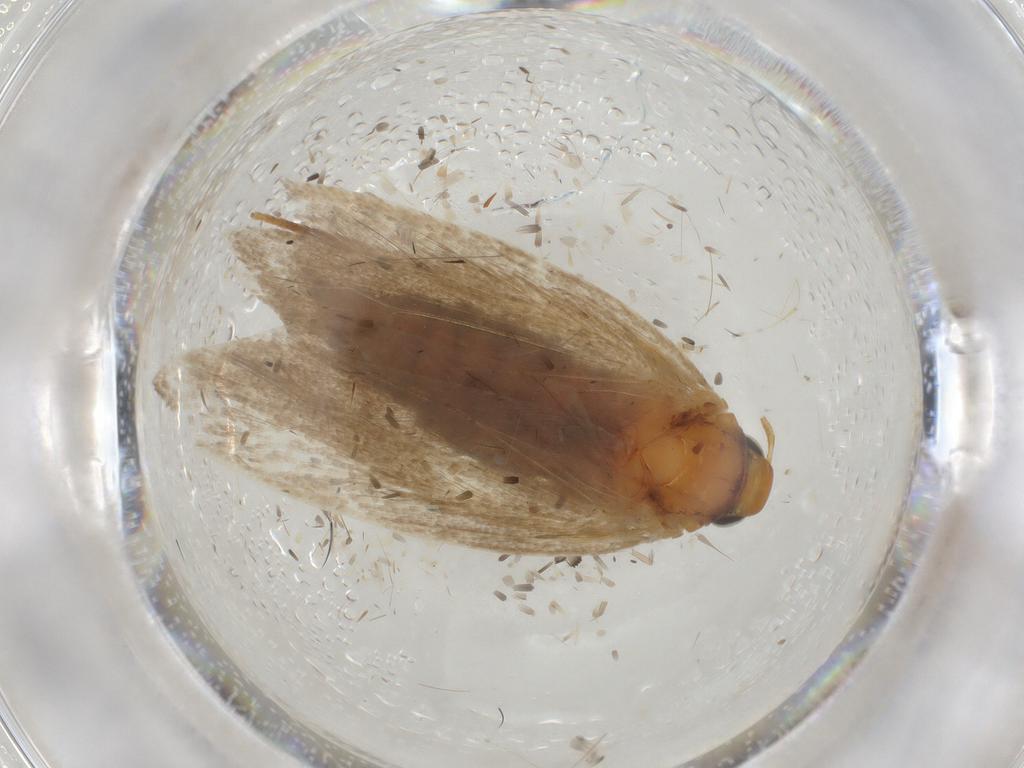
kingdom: Animalia
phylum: Arthropoda
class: Insecta
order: Lepidoptera
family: Gelechiidae
